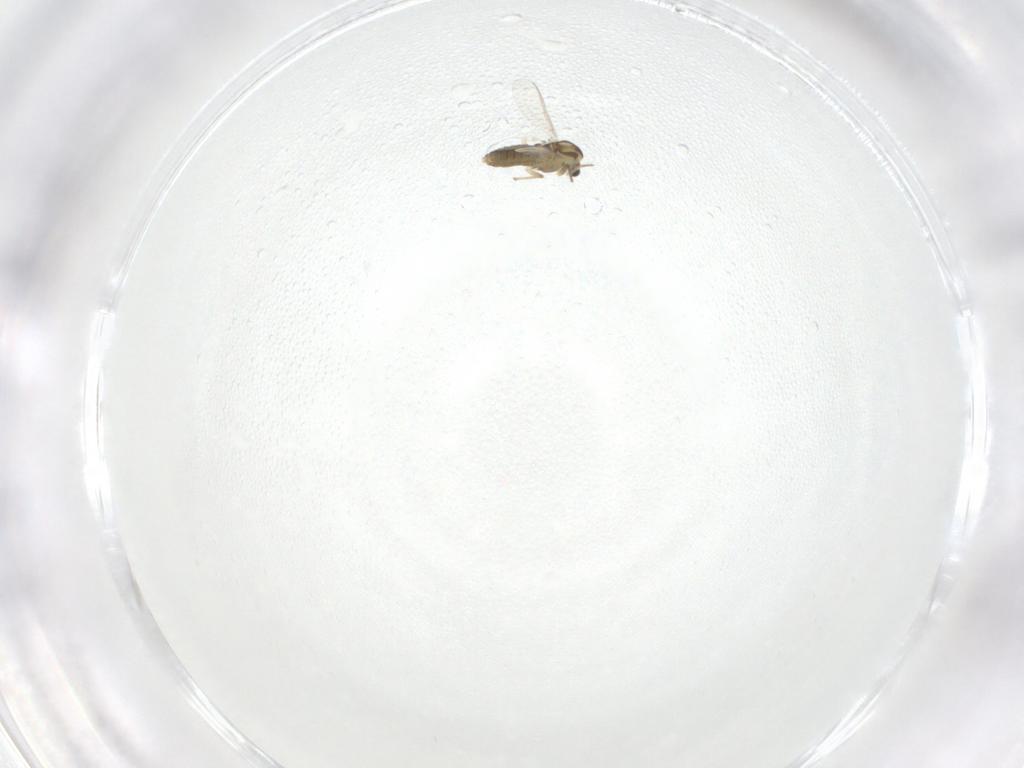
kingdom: Animalia
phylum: Arthropoda
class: Insecta
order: Diptera
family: Chironomidae
